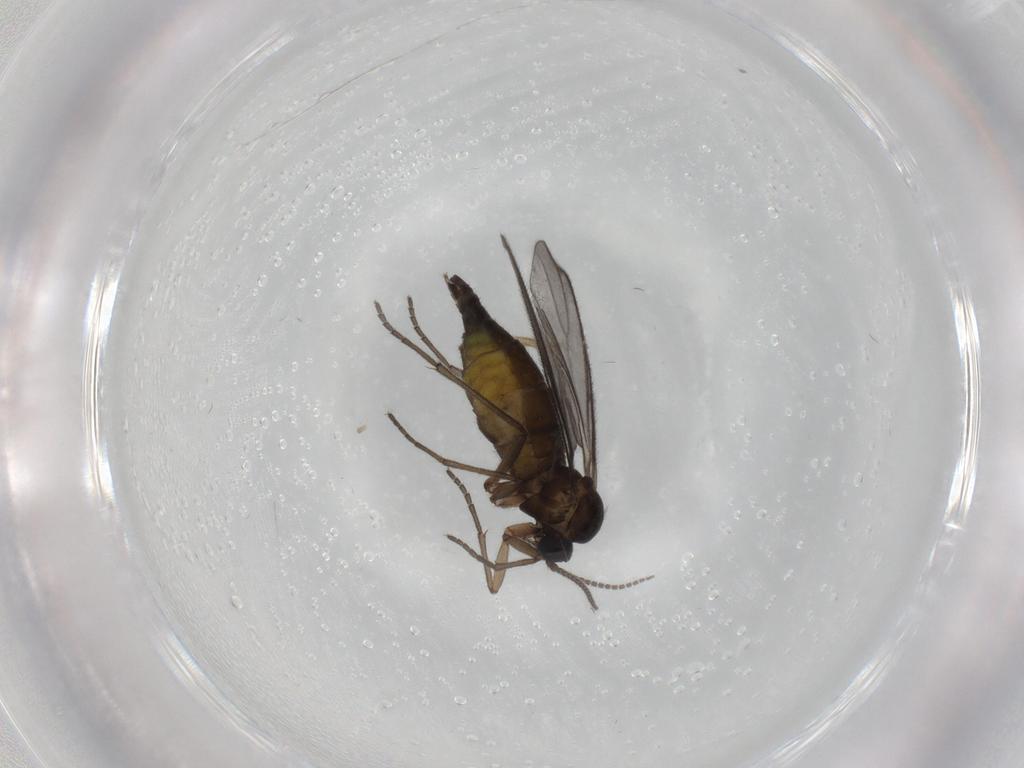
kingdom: Animalia
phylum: Arthropoda
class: Insecta
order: Diptera
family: Sciaridae
